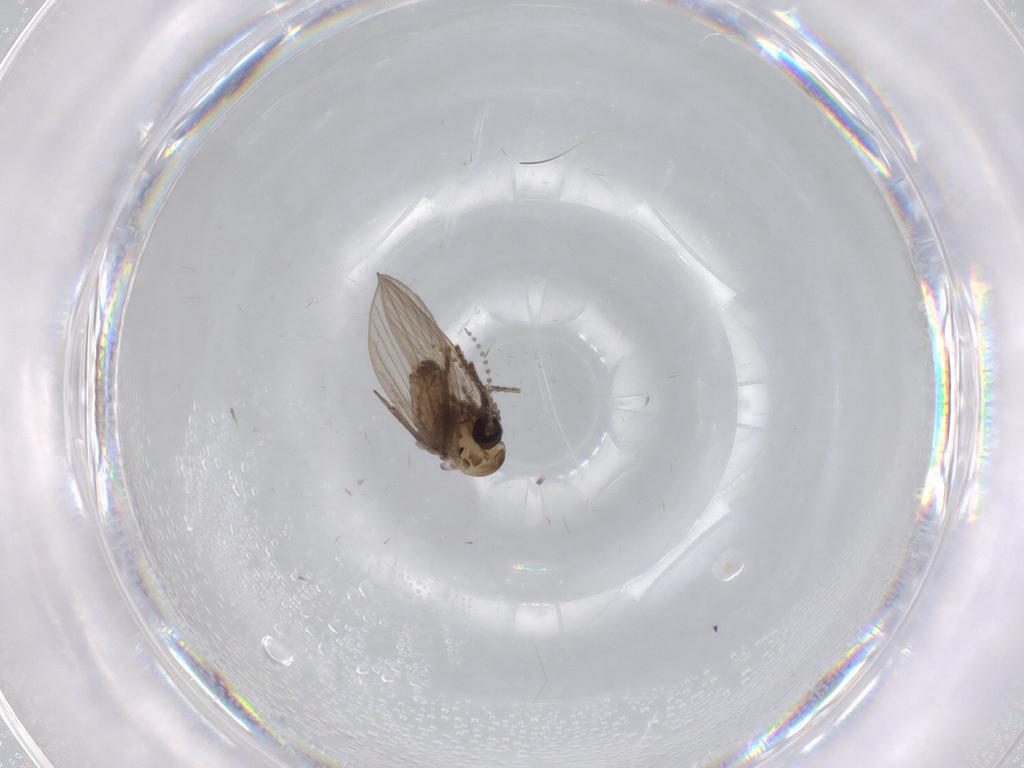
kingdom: Animalia
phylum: Arthropoda
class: Insecta
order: Diptera
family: Psychodidae
